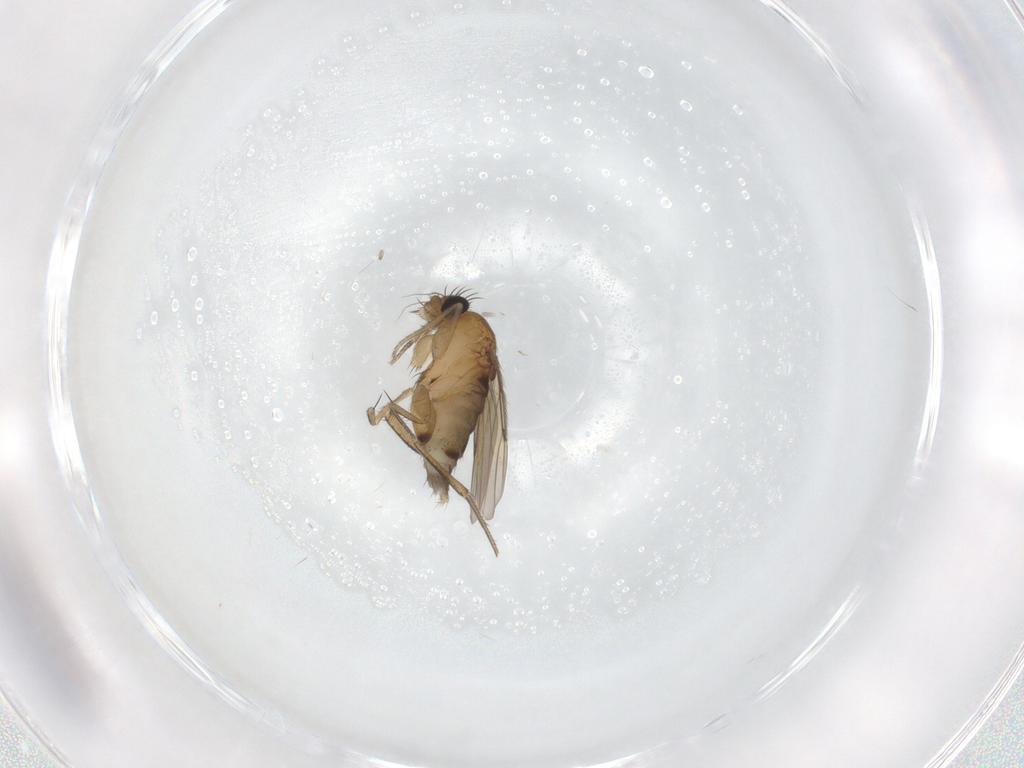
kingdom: Animalia
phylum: Arthropoda
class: Insecta
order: Diptera
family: Phoridae
